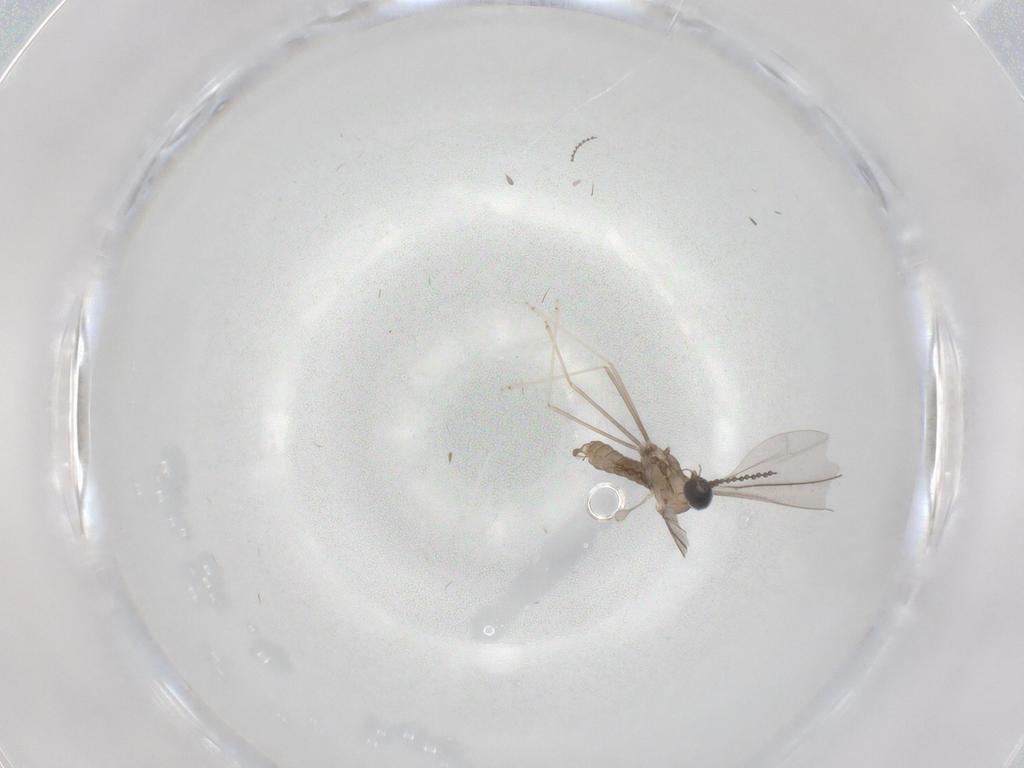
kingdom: Animalia
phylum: Arthropoda
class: Insecta
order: Diptera
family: Cecidomyiidae
